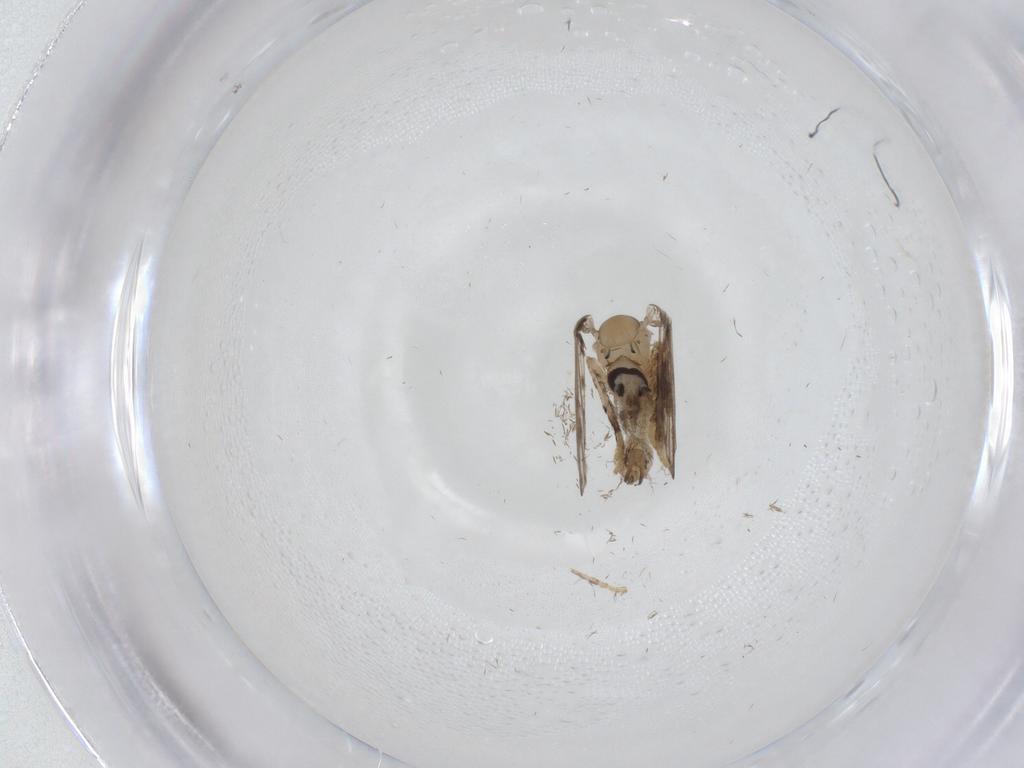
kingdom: Animalia
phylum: Arthropoda
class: Insecta
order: Diptera
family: Psychodidae
